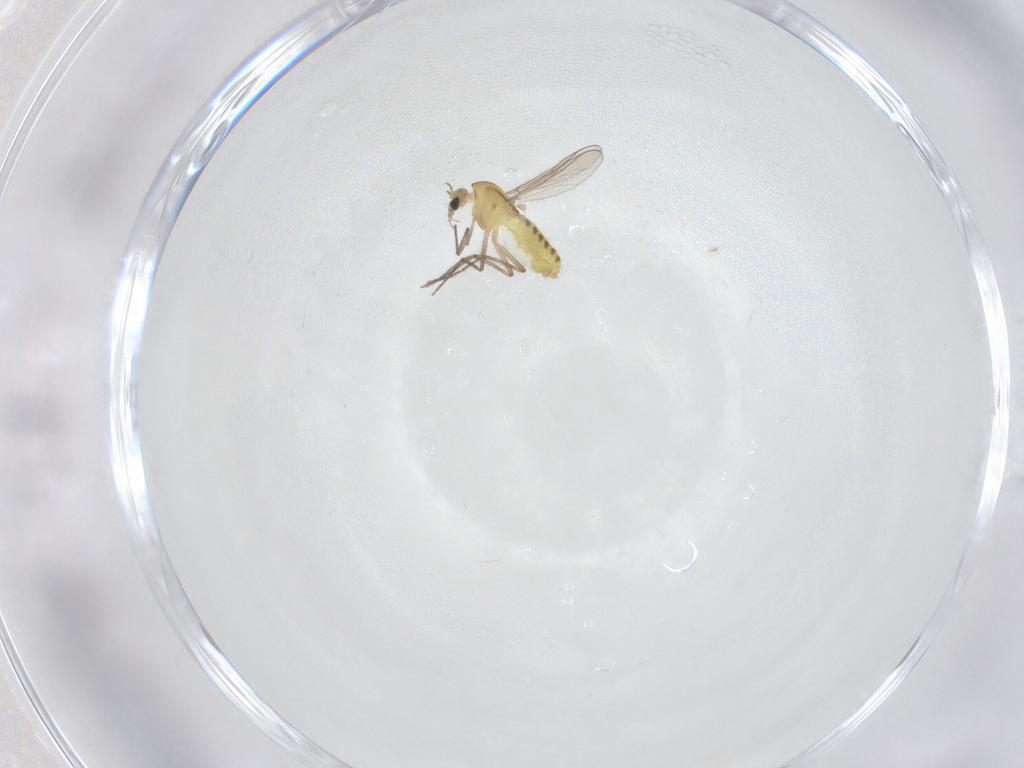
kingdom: Animalia
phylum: Arthropoda
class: Insecta
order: Diptera
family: Chironomidae
